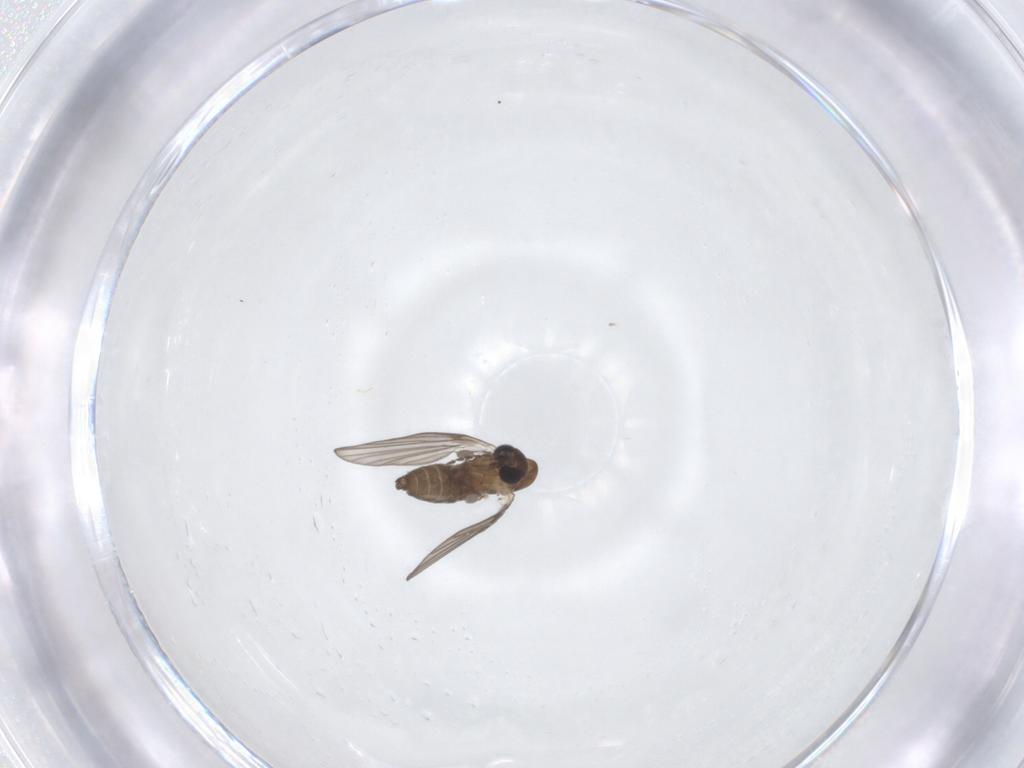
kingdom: Animalia
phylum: Arthropoda
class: Insecta
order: Diptera
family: Psychodidae
